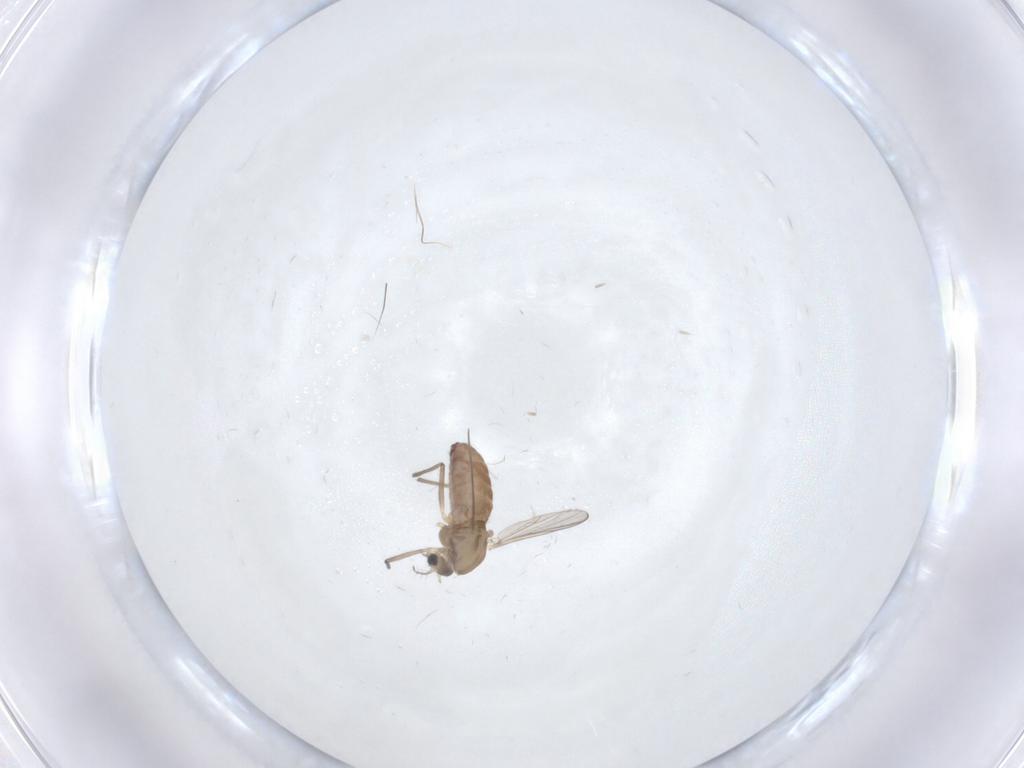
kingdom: Animalia
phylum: Arthropoda
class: Insecta
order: Diptera
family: Chironomidae
